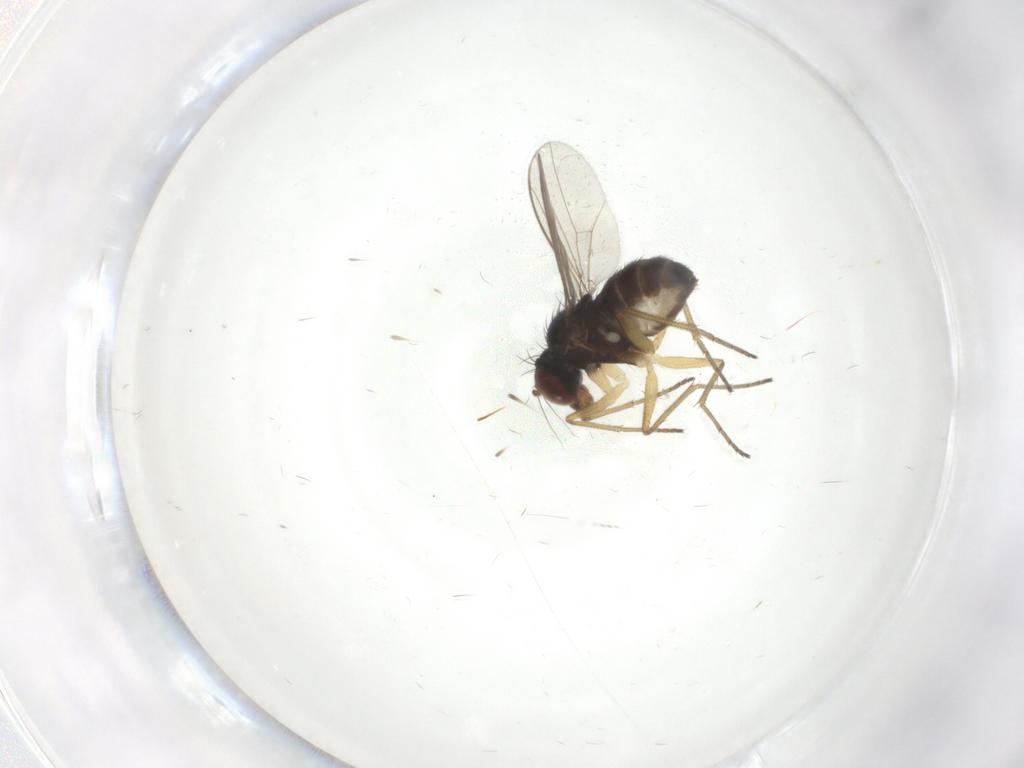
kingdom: Animalia
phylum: Arthropoda
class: Insecta
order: Diptera
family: Dolichopodidae
